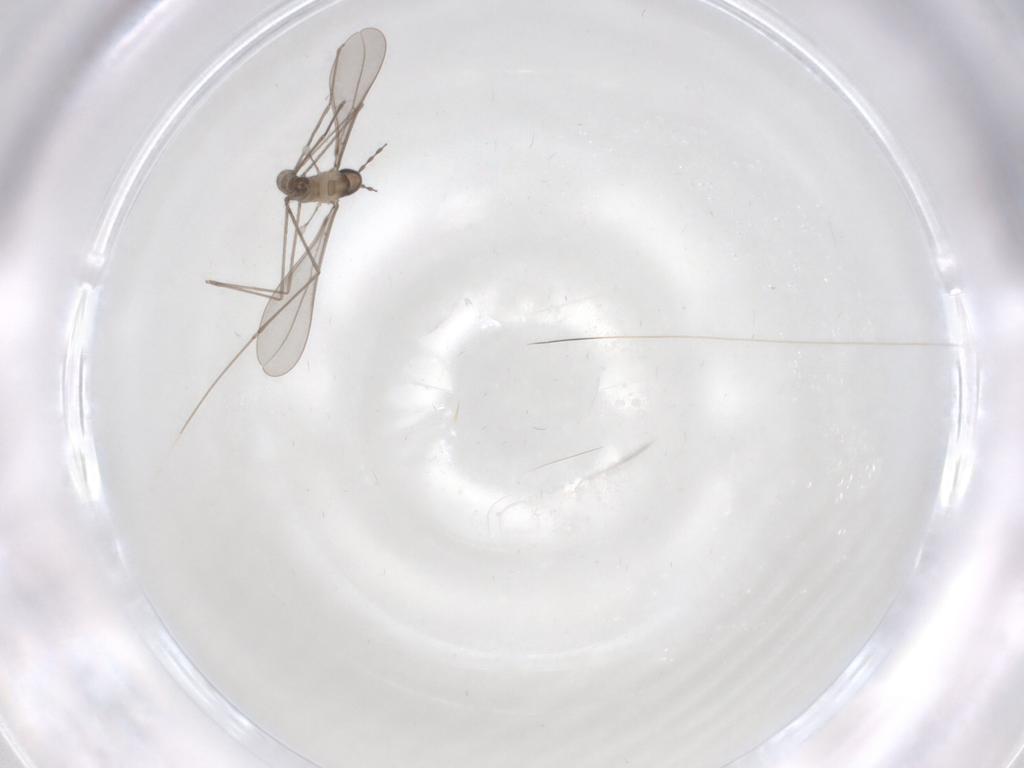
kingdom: Animalia
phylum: Arthropoda
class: Insecta
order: Diptera
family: Cecidomyiidae
